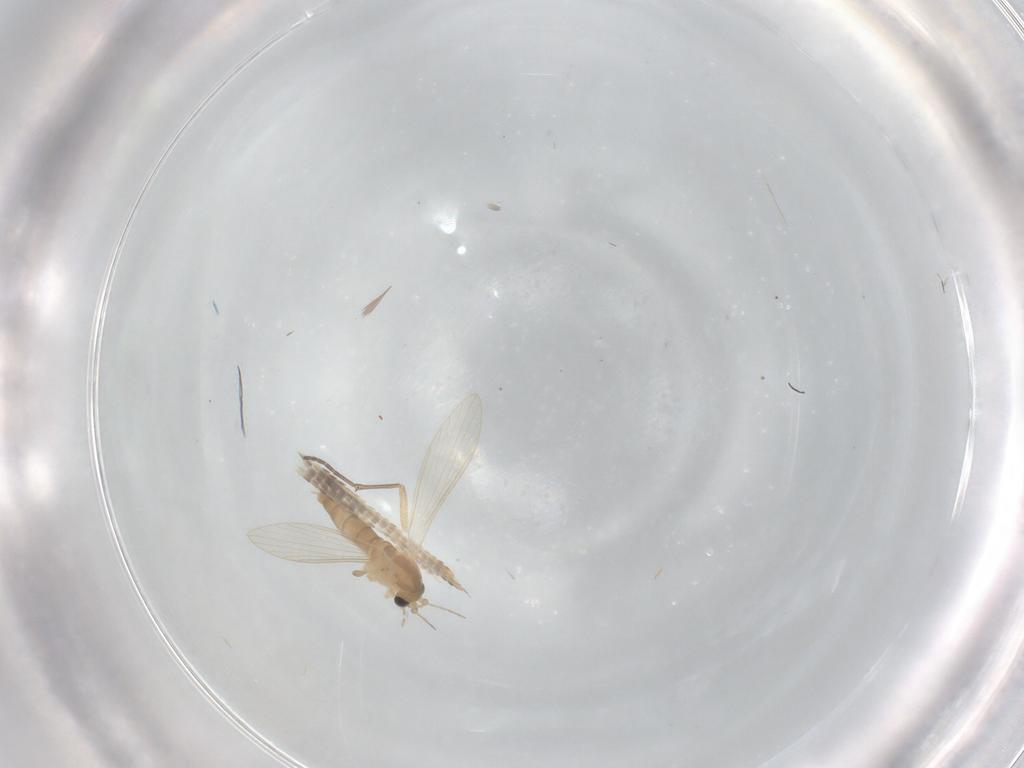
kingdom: Animalia
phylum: Arthropoda
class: Insecta
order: Diptera
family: Psychodidae
